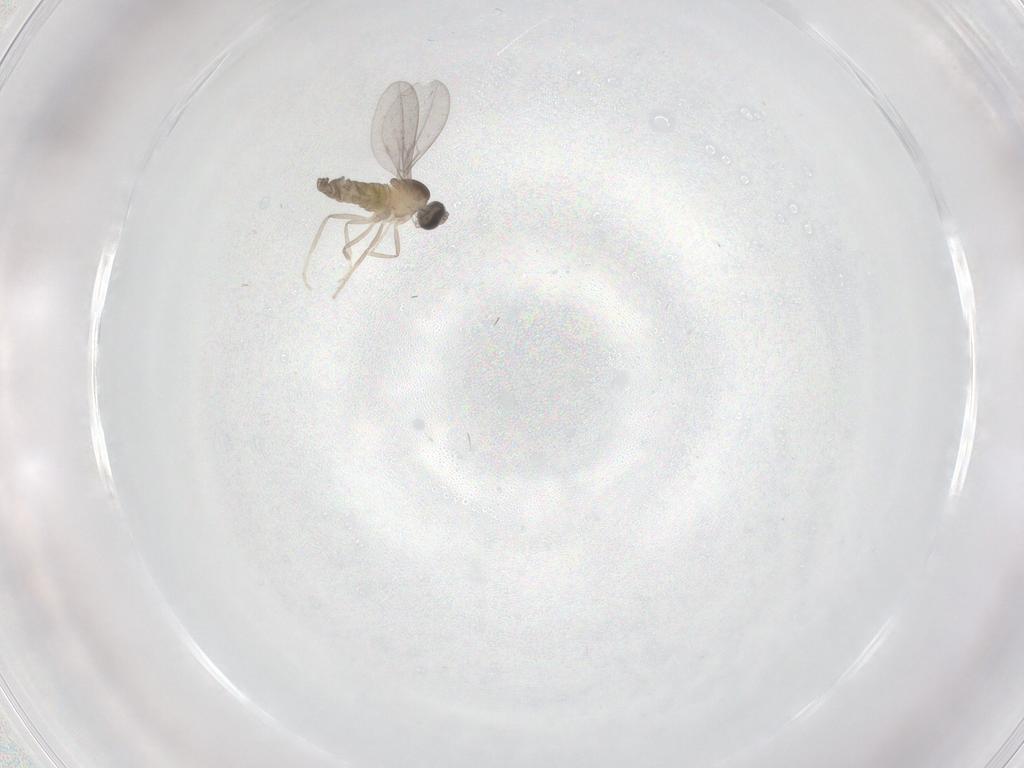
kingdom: Animalia
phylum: Arthropoda
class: Insecta
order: Diptera
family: Cecidomyiidae
